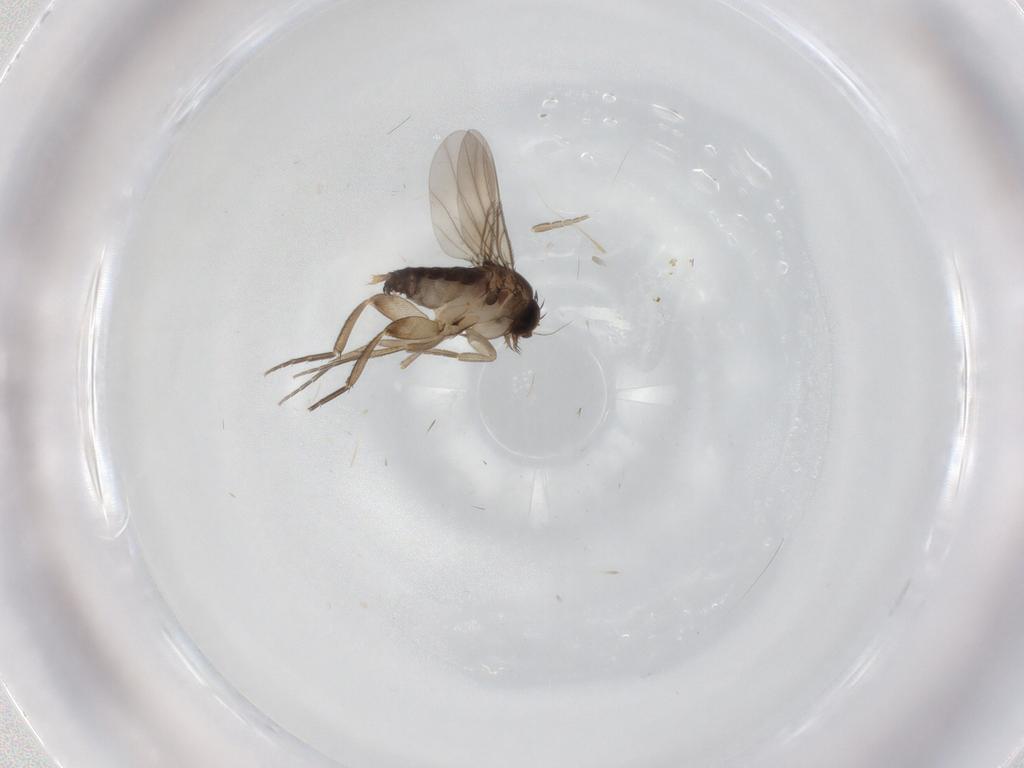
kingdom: Animalia
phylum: Arthropoda
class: Insecta
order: Diptera
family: Phoridae
